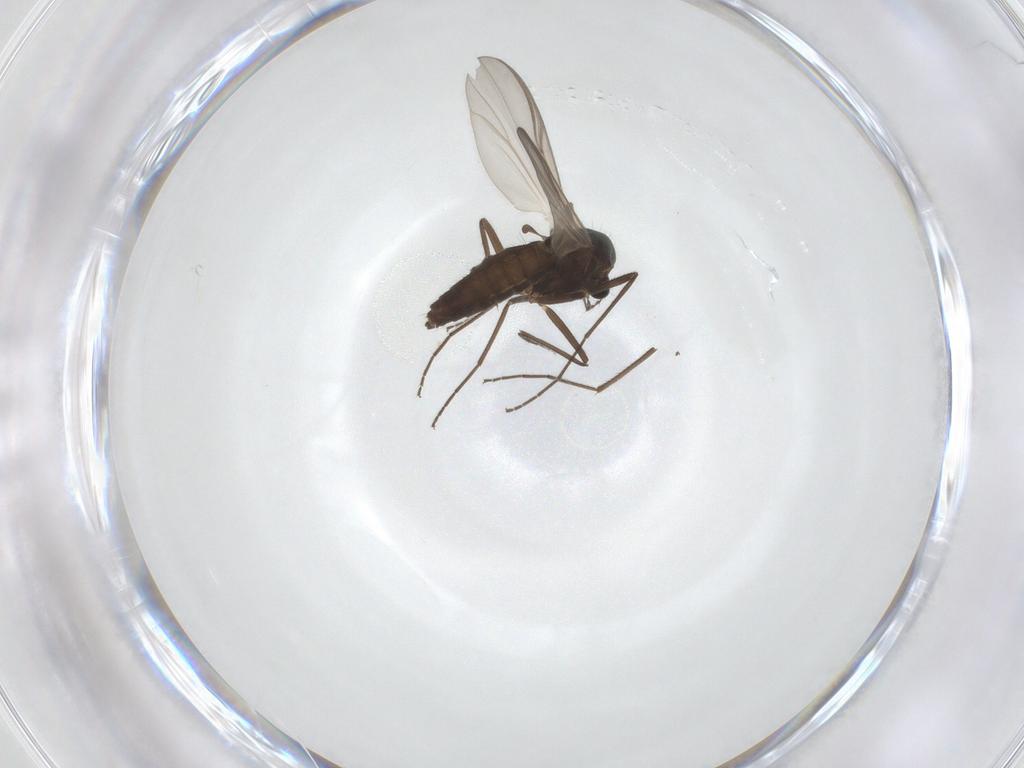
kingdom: Animalia
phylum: Arthropoda
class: Insecta
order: Diptera
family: Chironomidae
